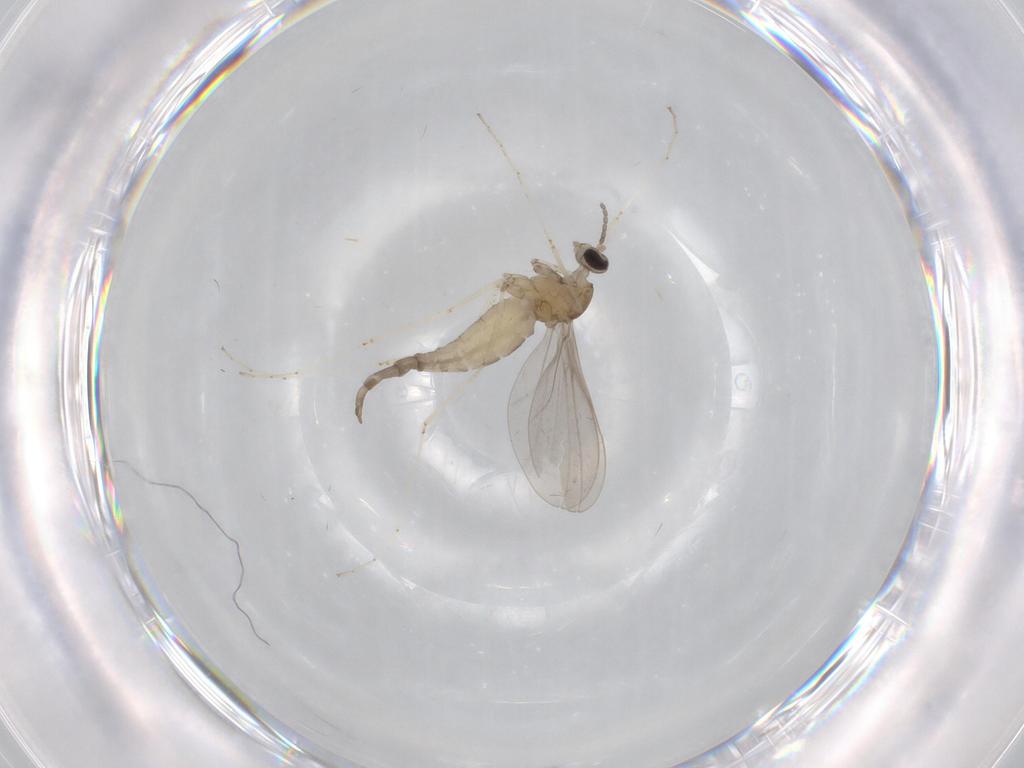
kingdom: Animalia
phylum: Arthropoda
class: Insecta
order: Diptera
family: Cecidomyiidae
